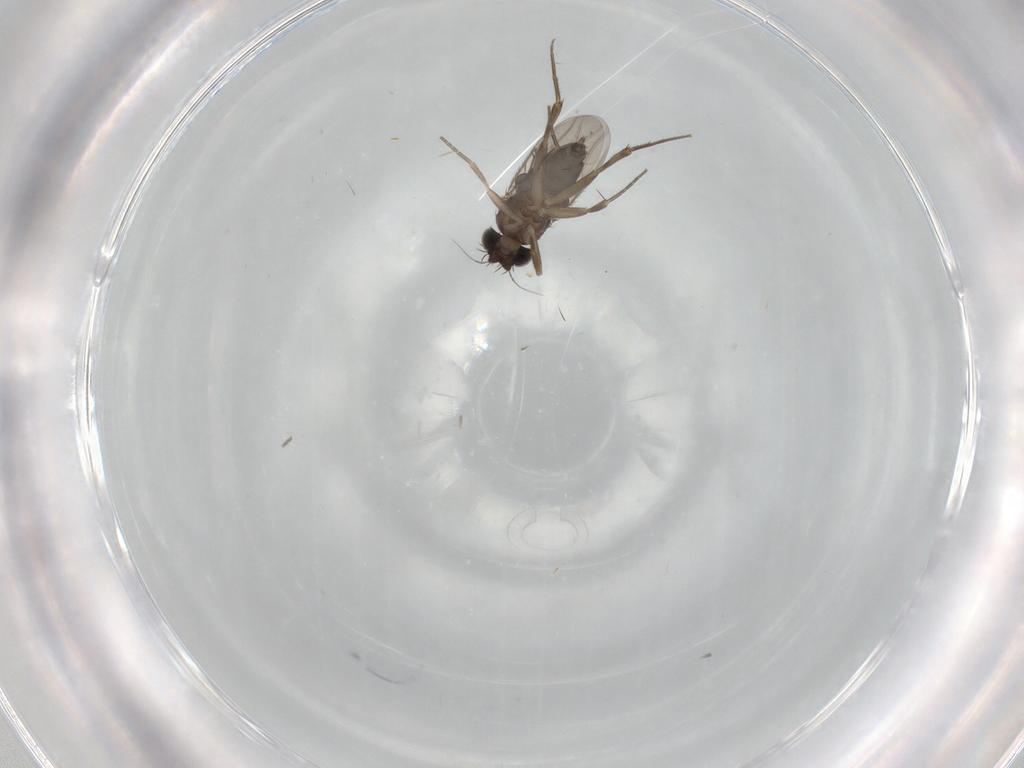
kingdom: Animalia
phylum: Arthropoda
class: Insecta
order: Diptera
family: Phoridae
